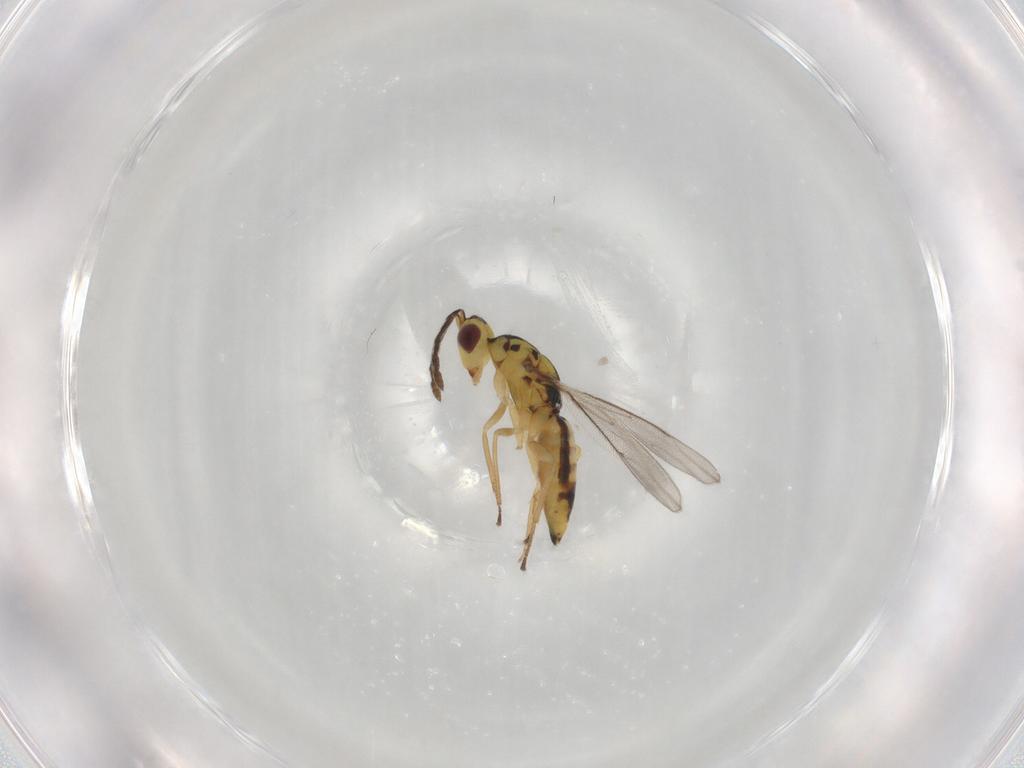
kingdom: Animalia
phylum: Arthropoda
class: Insecta
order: Hymenoptera
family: Eulophidae
